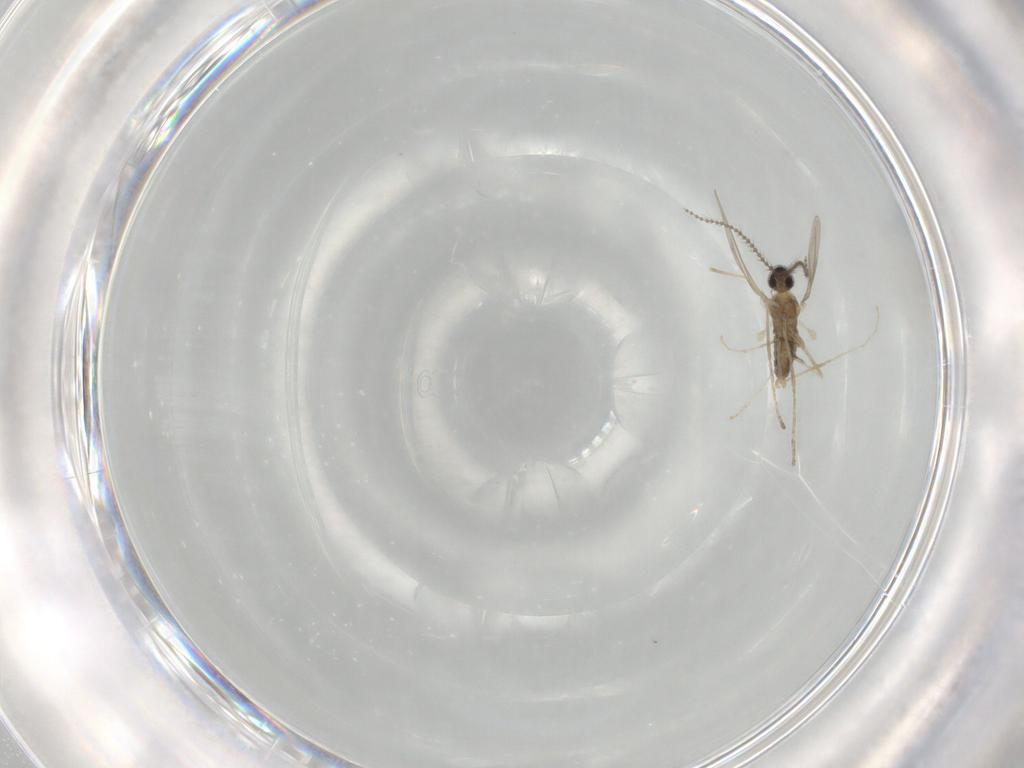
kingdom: Animalia
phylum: Arthropoda
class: Insecta
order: Diptera
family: Cecidomyiidae
